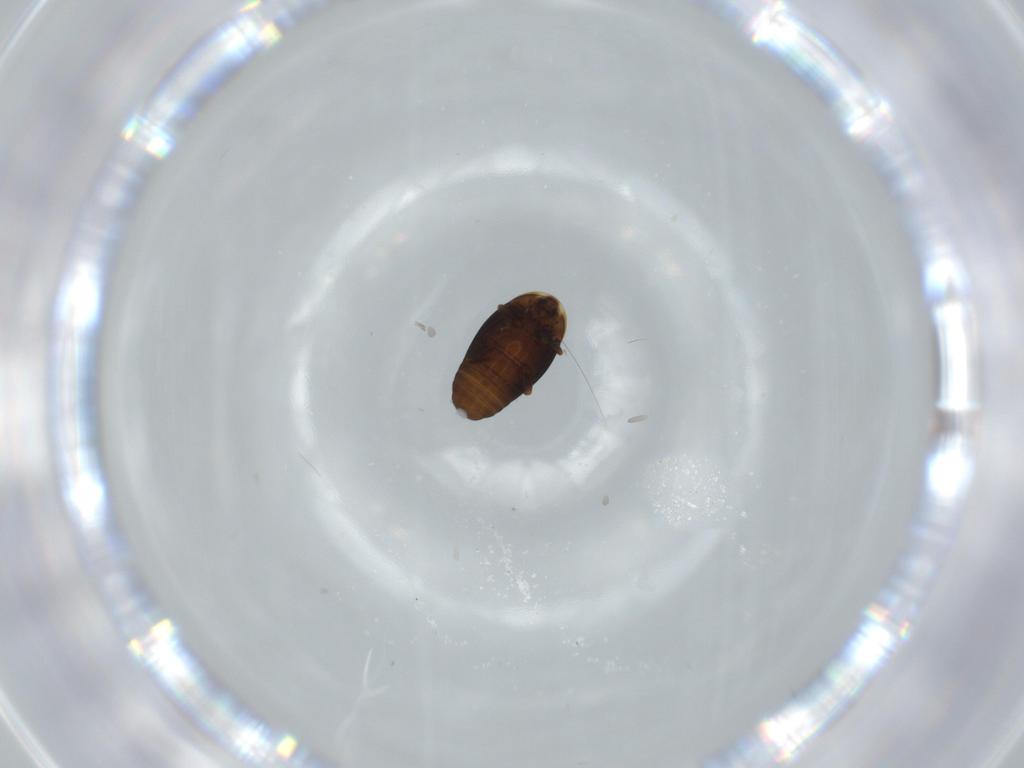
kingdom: Animalia
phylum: Arthropoda
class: Insecta
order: Coleoptera
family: Corylophidae
